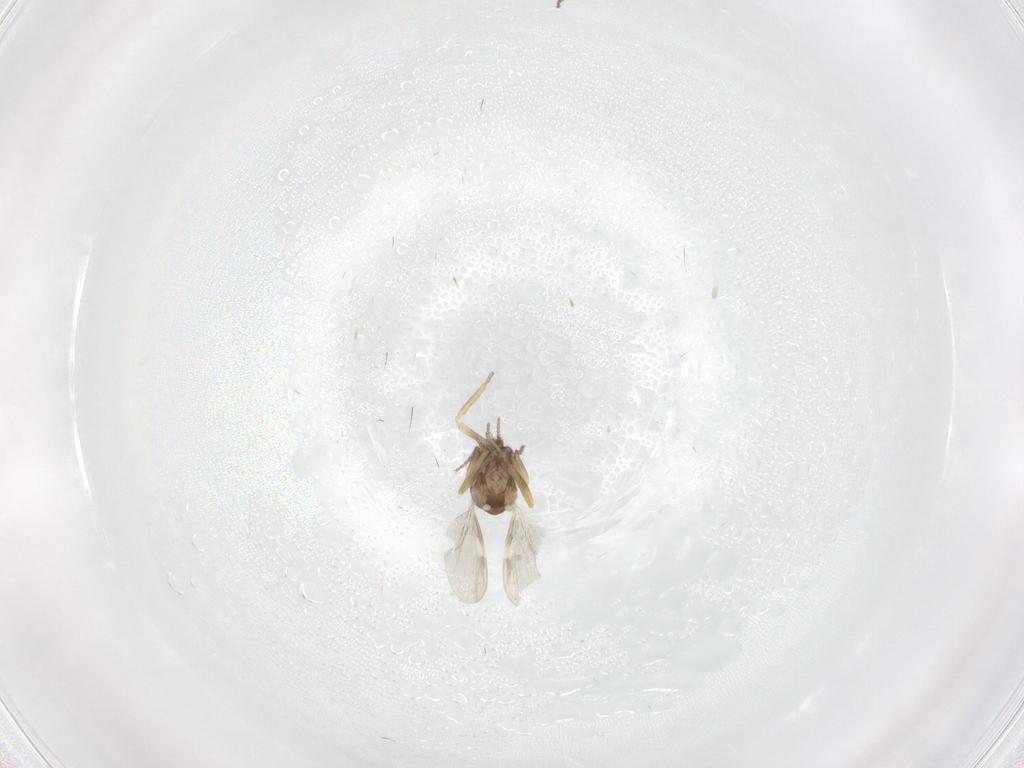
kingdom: Animalia
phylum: Arthropoda
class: Insecta
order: Diptera
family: Ceratopogonidae
